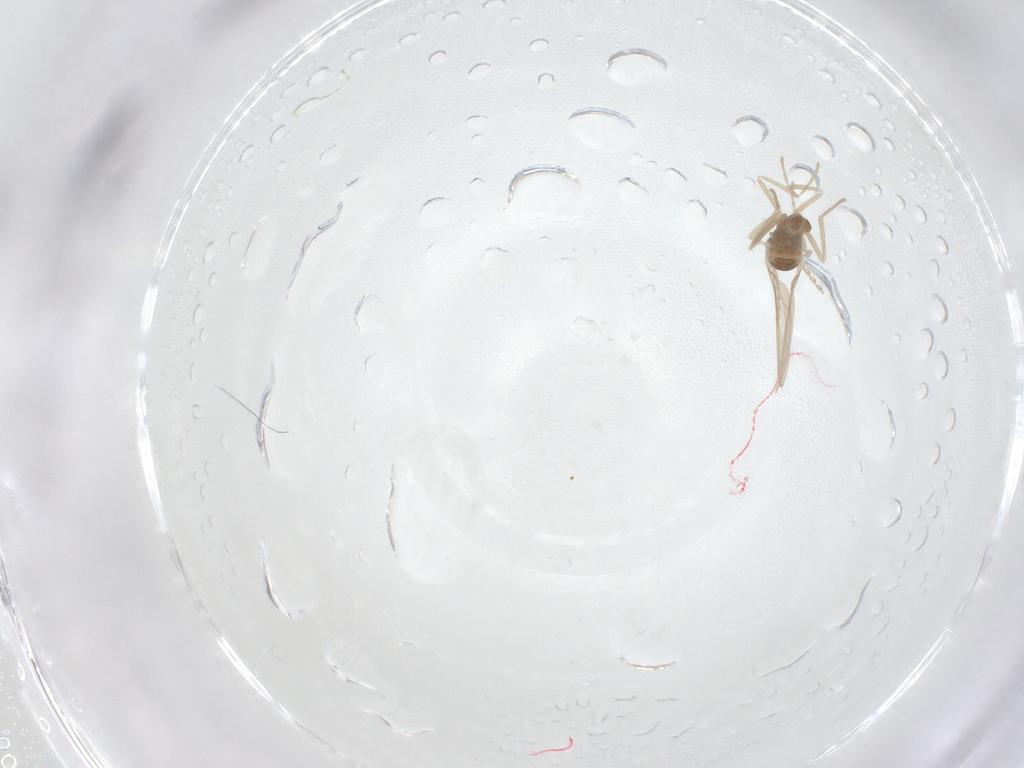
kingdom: Animalia
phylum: Arthropoda
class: Insecta
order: Diptera
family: Cecidomyiidae
